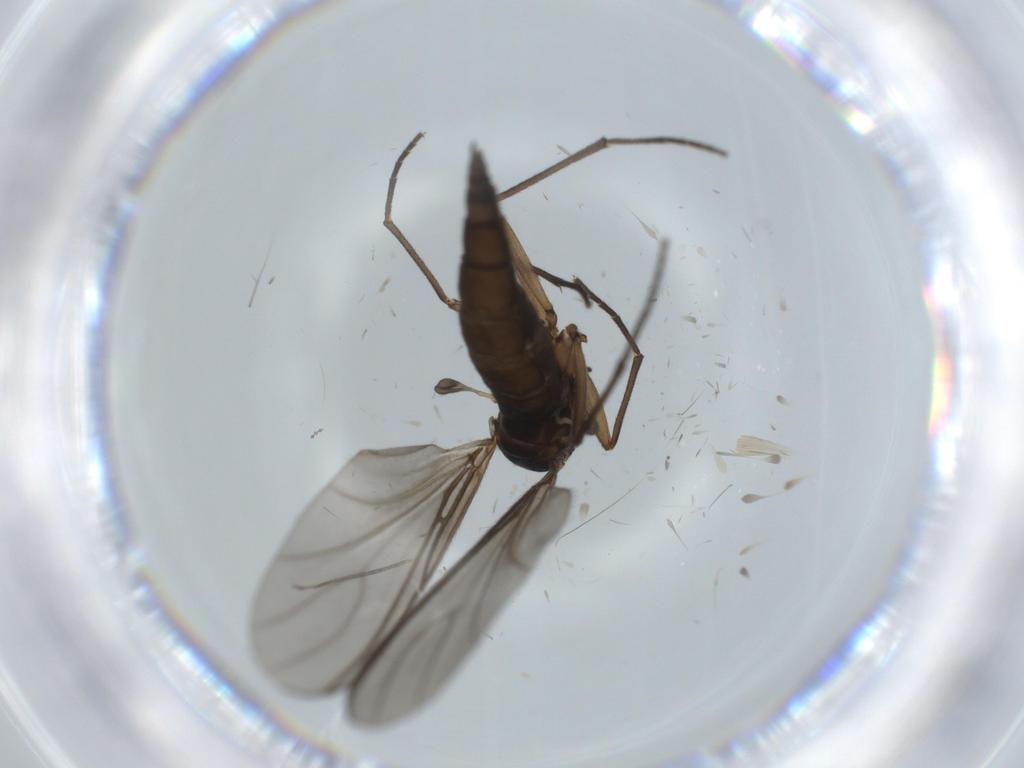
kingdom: Animalia
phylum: Arthropoda
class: Insecta
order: Diptera
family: Sciaridae
